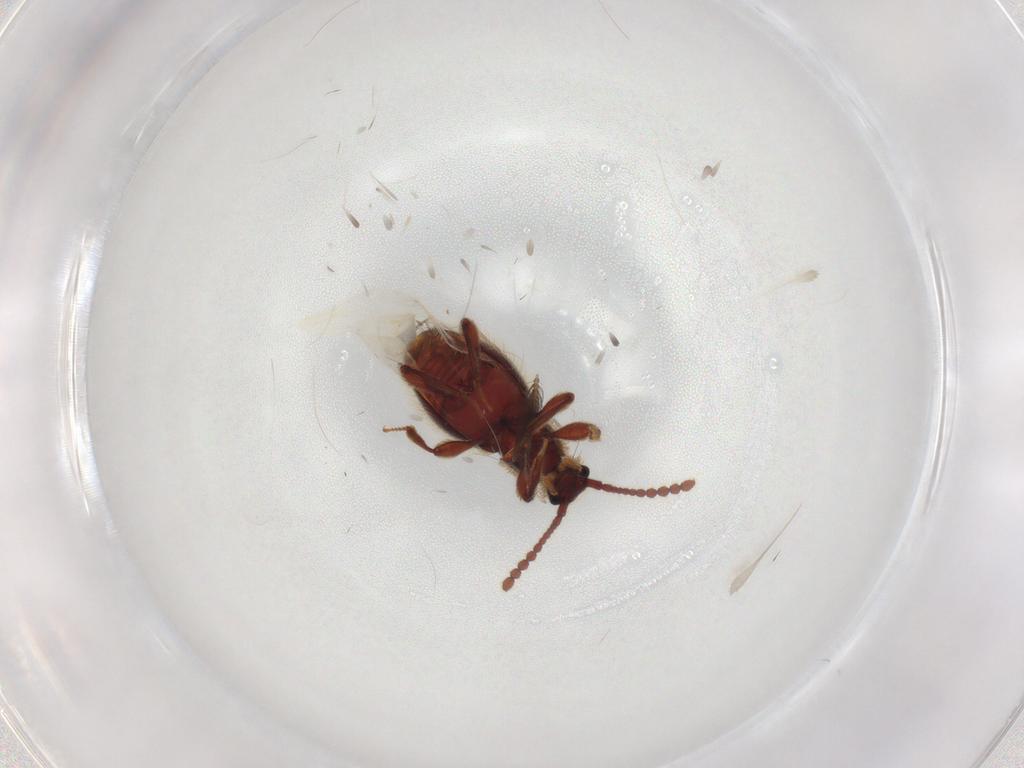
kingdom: Animalia
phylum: Arthropoda
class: Insecta
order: Coleoptera
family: Staphylinidae
